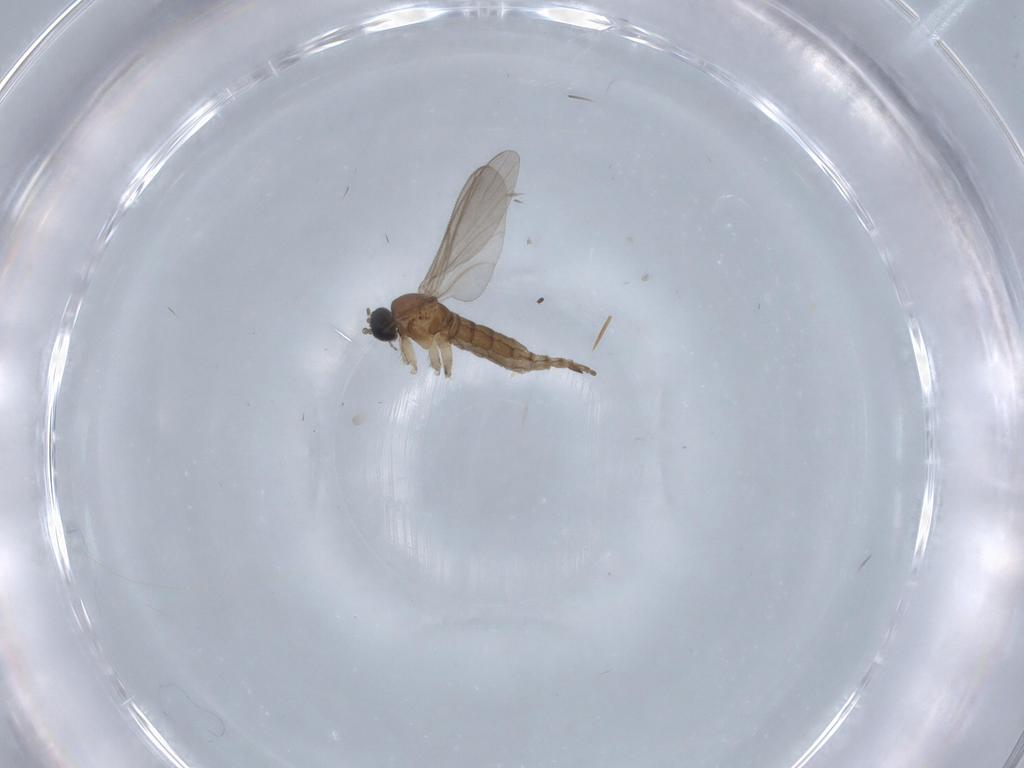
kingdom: Animalia
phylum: Arthropoda
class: Insecta
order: Diptera
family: Sciaridae
